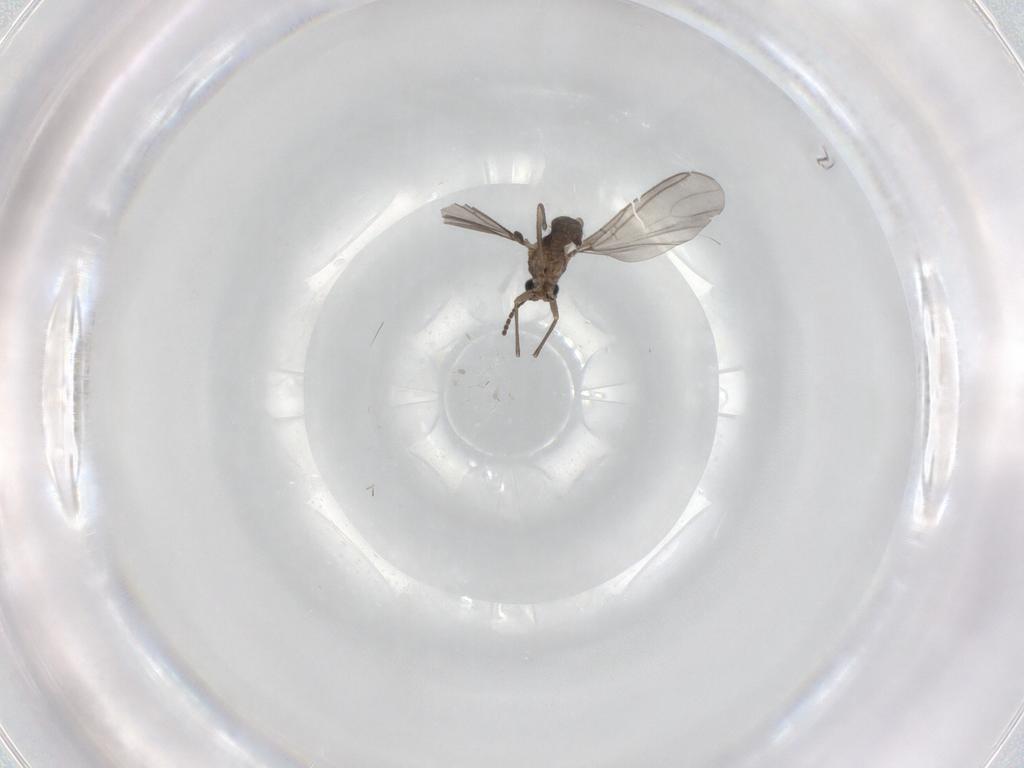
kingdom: Animalia
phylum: Arthropoda
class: Insecta
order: Diptera
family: Sciaridae
